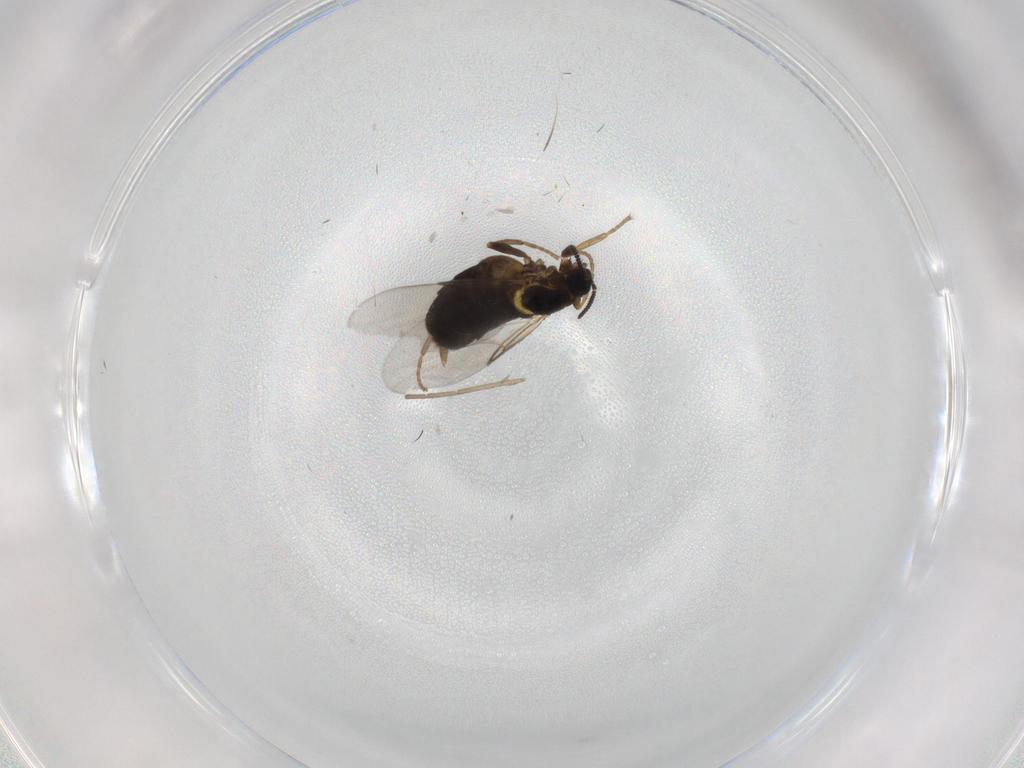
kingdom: Animalia
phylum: Arthropoda
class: Insecta
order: Diptera
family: Scatopsidae
